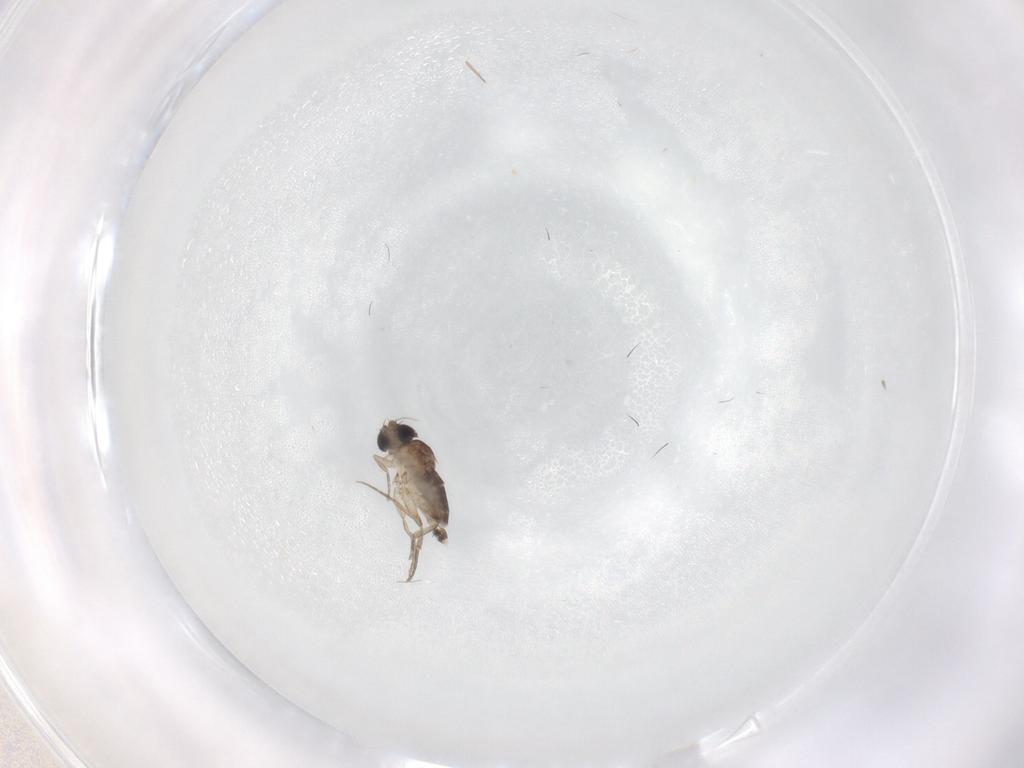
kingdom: Animalia
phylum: Arthropoda
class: Insecta
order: Diptera
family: Phoridae
